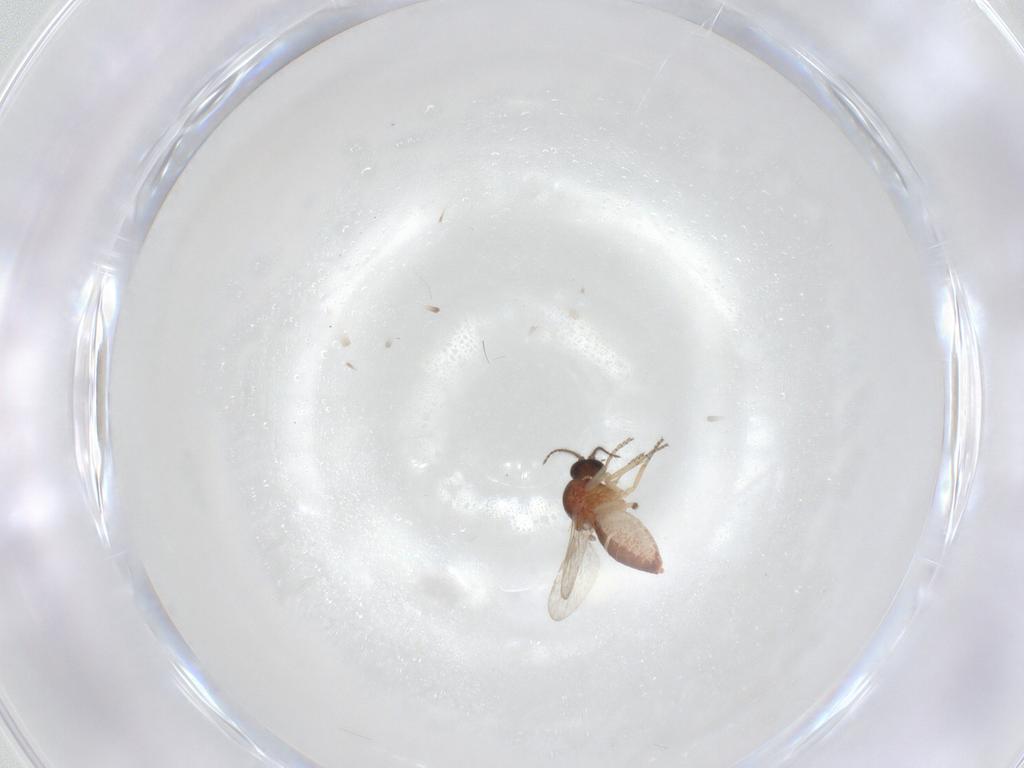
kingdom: Animalia
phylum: Arthropoda
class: Insecta
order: Diptera
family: Ceratopogonidae
